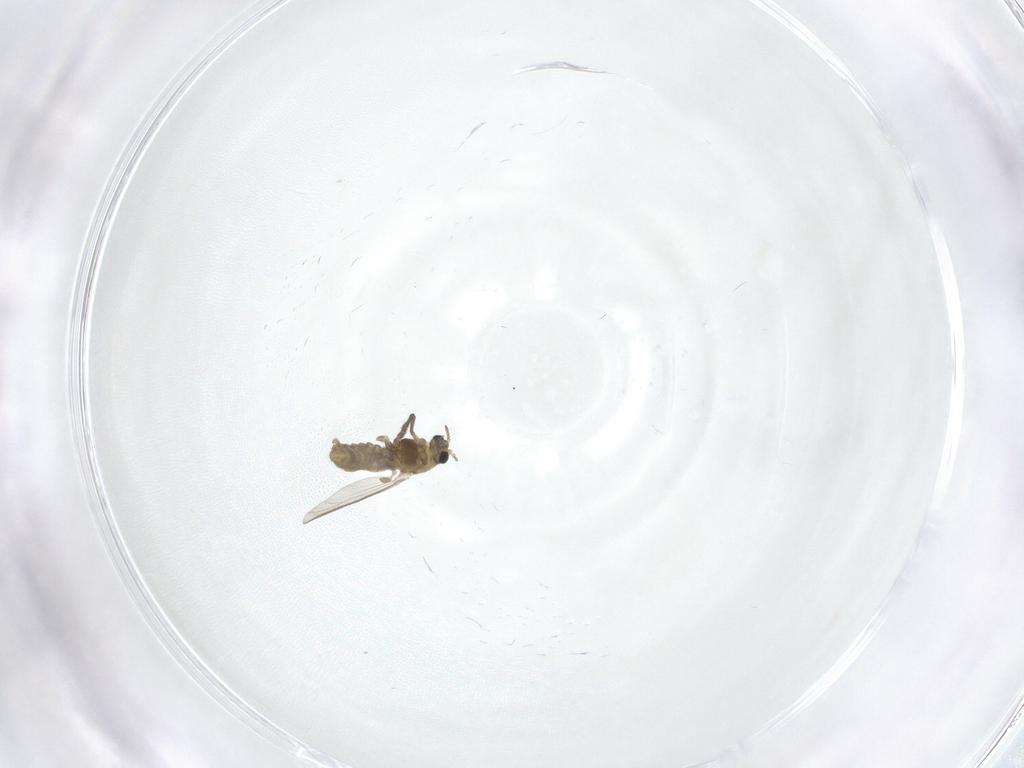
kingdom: Animalia
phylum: Arthropoda
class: Insecta
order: Diptera
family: Chironomidae
